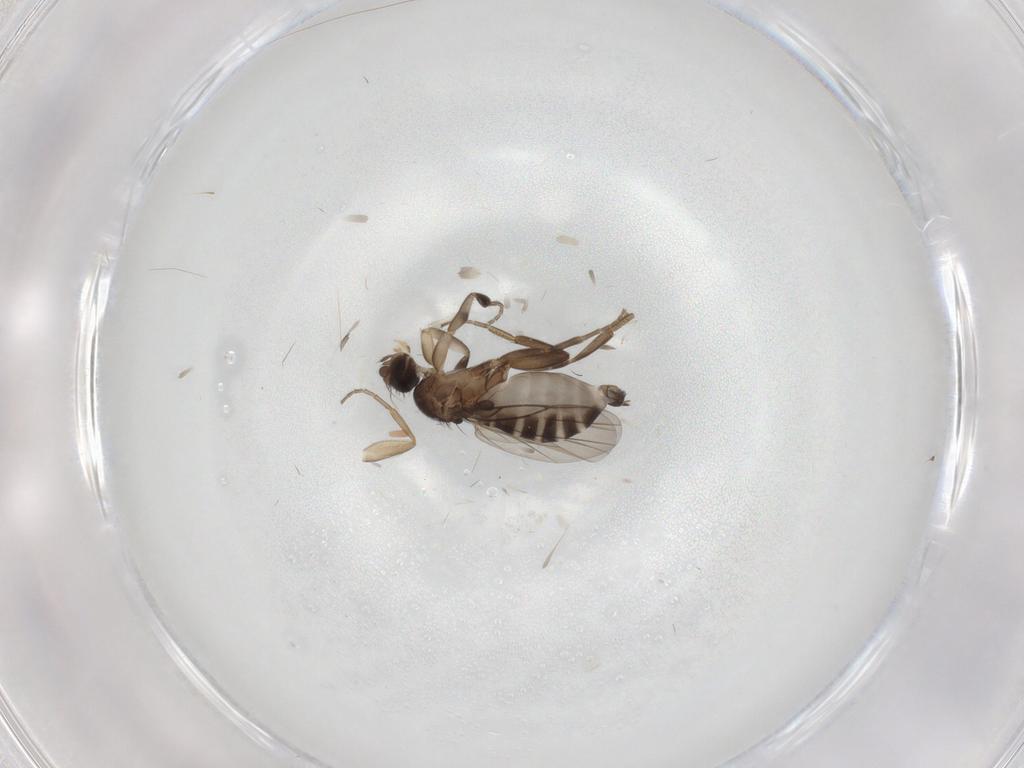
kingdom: Animalia
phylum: Arthropoda
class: Insecta
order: Diptera
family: Phoridae
